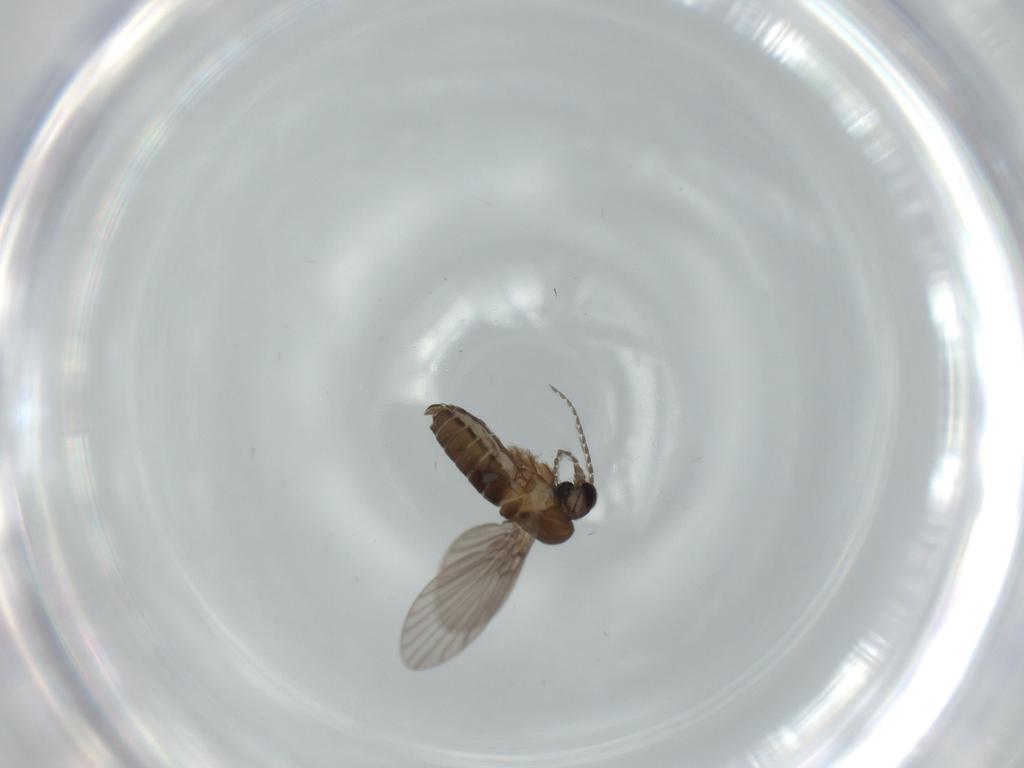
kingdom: Animalia
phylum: Arthropoda
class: Insecta
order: Diptera
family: Psychodidae
